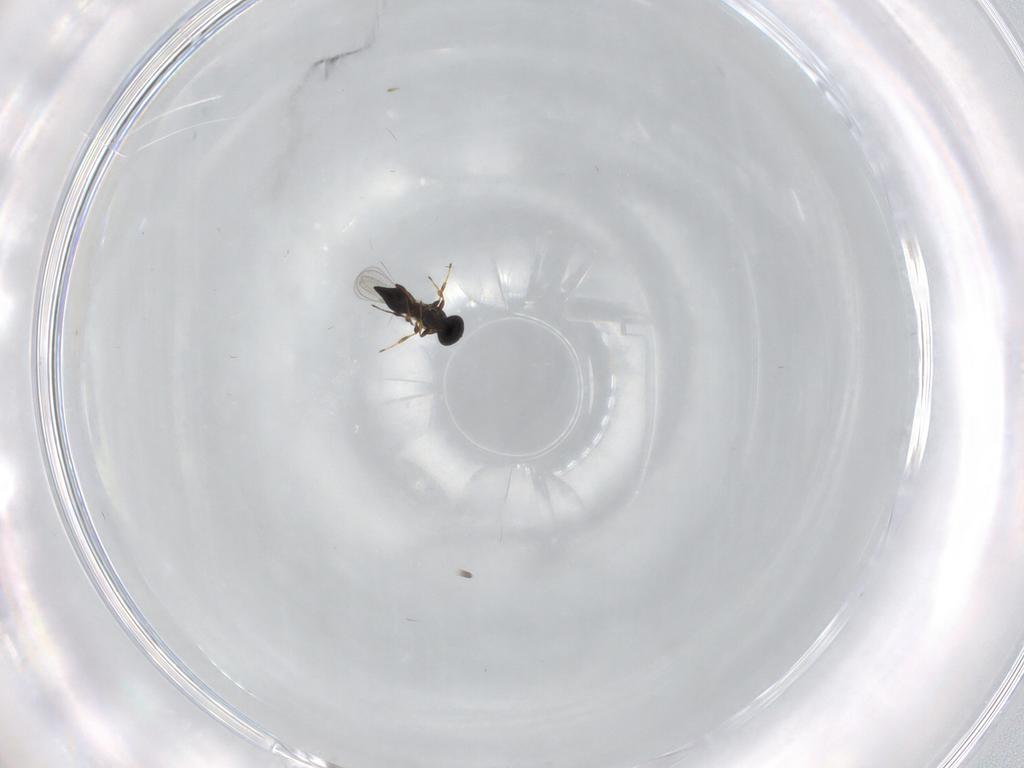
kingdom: Animalia
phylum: Arthropoda
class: Insecta
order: Hymenoptera
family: Platygastridae
